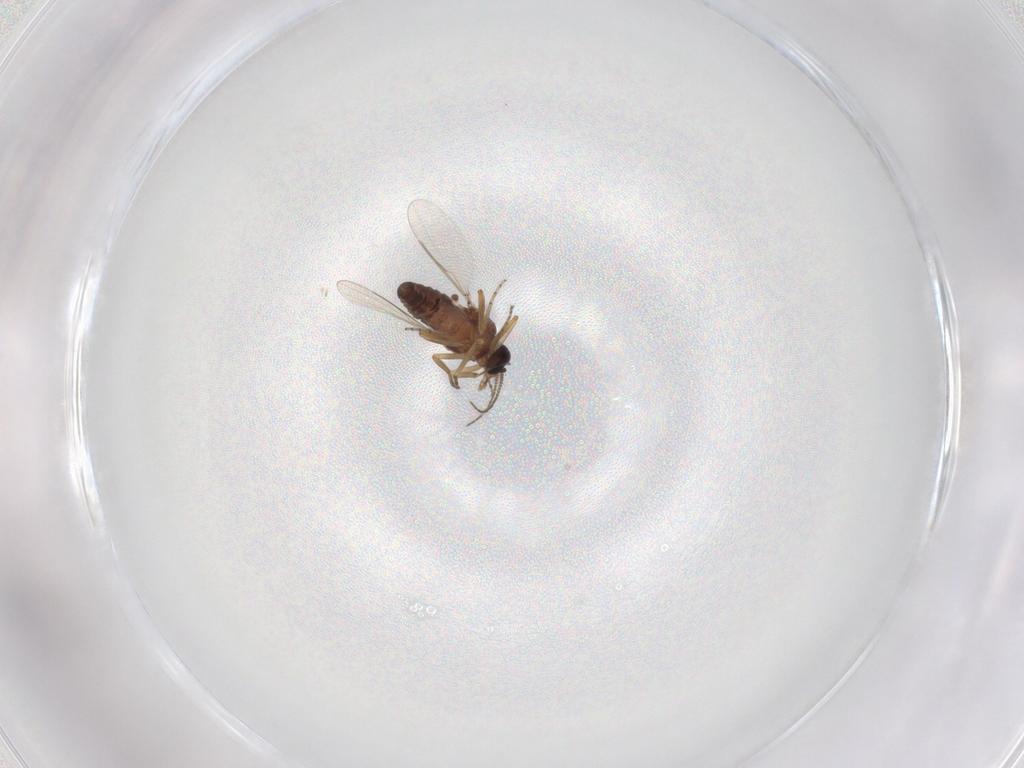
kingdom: Animalia
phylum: Arthropoda
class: Insecta
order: Diptera
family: Ceratopogonidae
